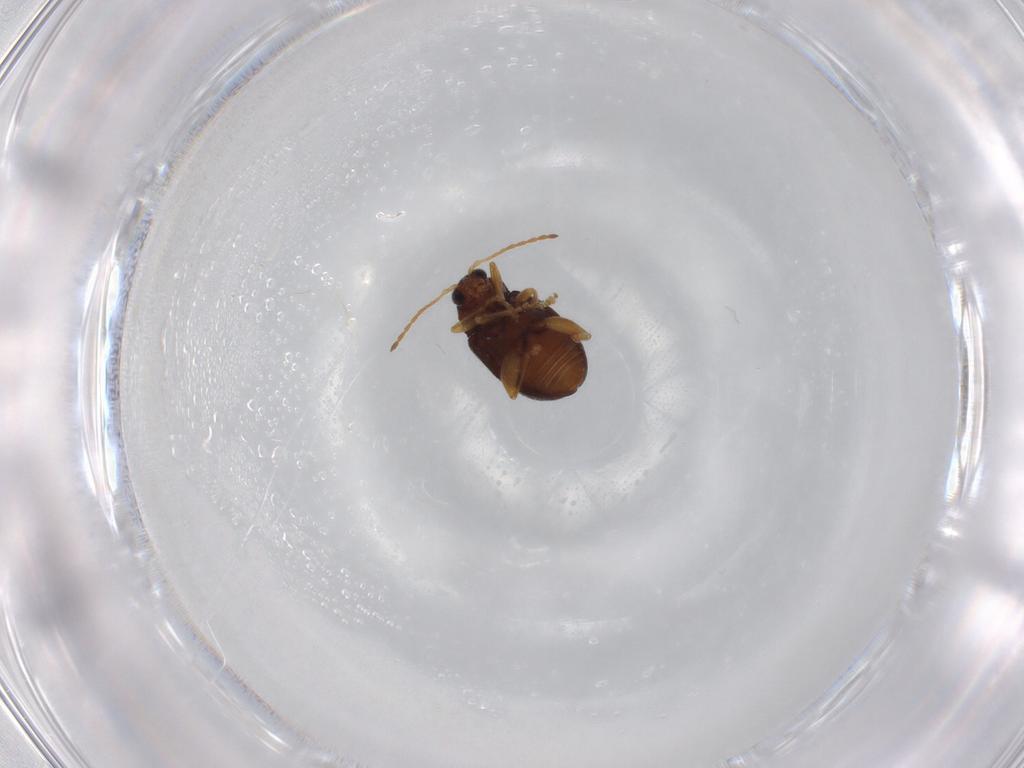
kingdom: Animalia
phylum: Arthropoda
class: Insecta
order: Coleoptera
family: Chrysomelidae
